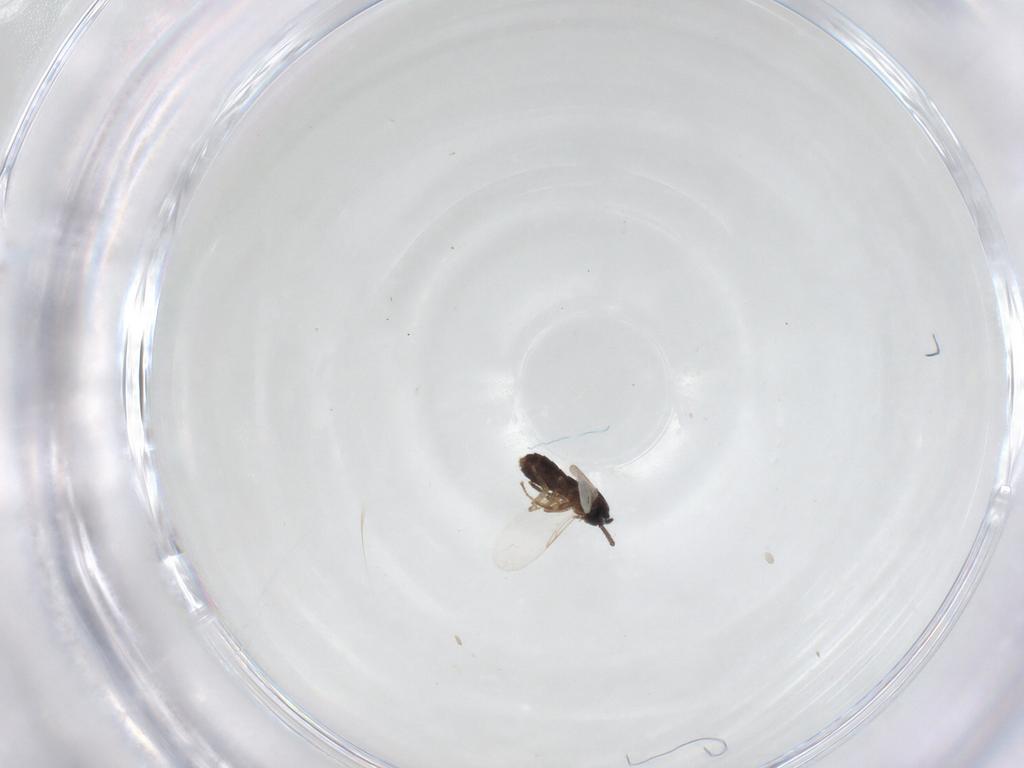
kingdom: Animalia
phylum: Arthropoda
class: Insecta
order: Diptera
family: Scatopsidae
